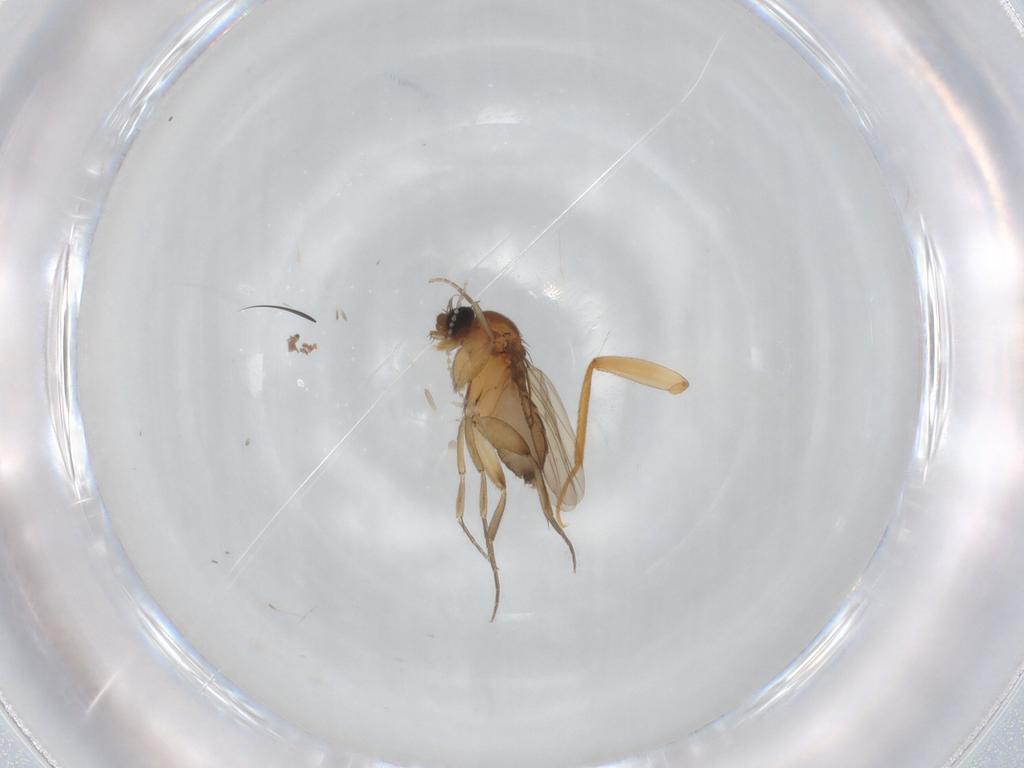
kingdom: Animalia
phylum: Arthropoda
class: Insecta
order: Diptera
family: Phoridae
